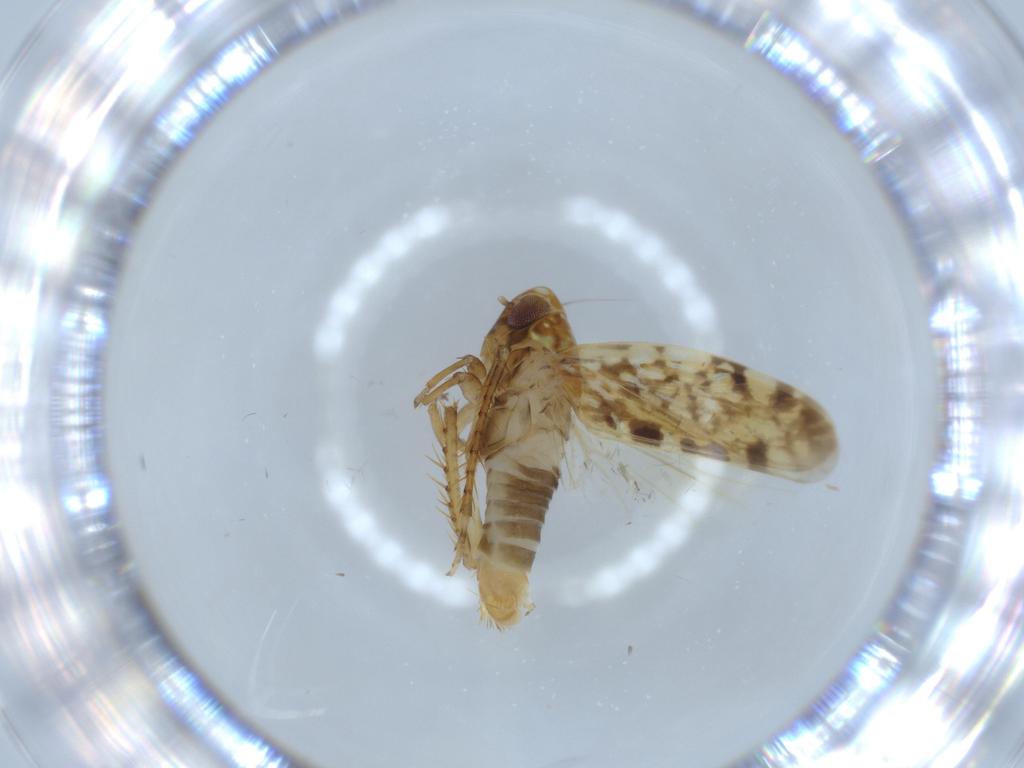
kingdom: Animalia
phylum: Arthropoda
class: Insecta
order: Hemiptera
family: Cicadellidae
